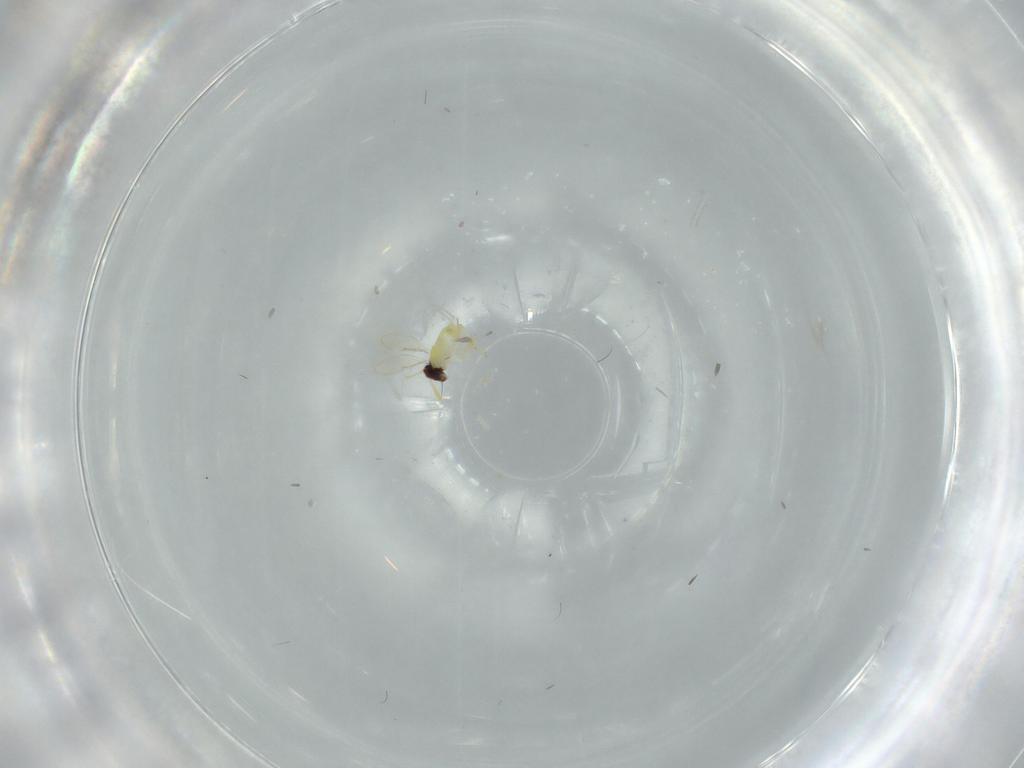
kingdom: Animalia
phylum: Arthropoda
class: Insecta
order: Hymenoptera
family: Aphelinidae
